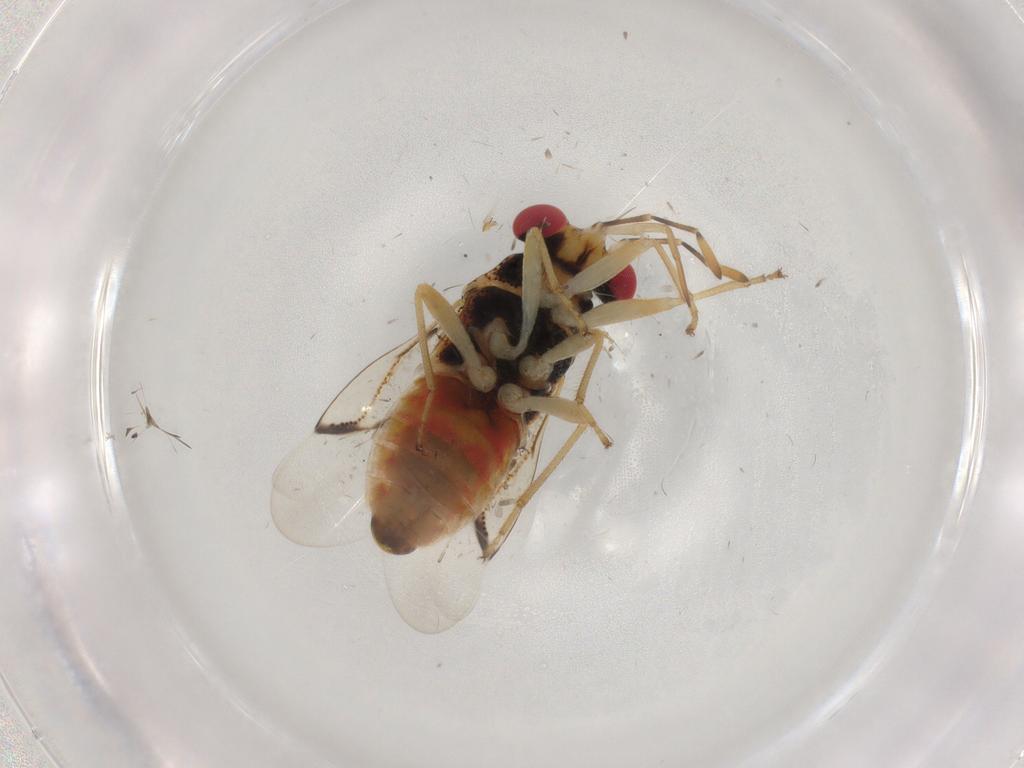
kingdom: Animalia
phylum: Arthropoda
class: Insecta
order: Hemiptera
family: Geocoridae
